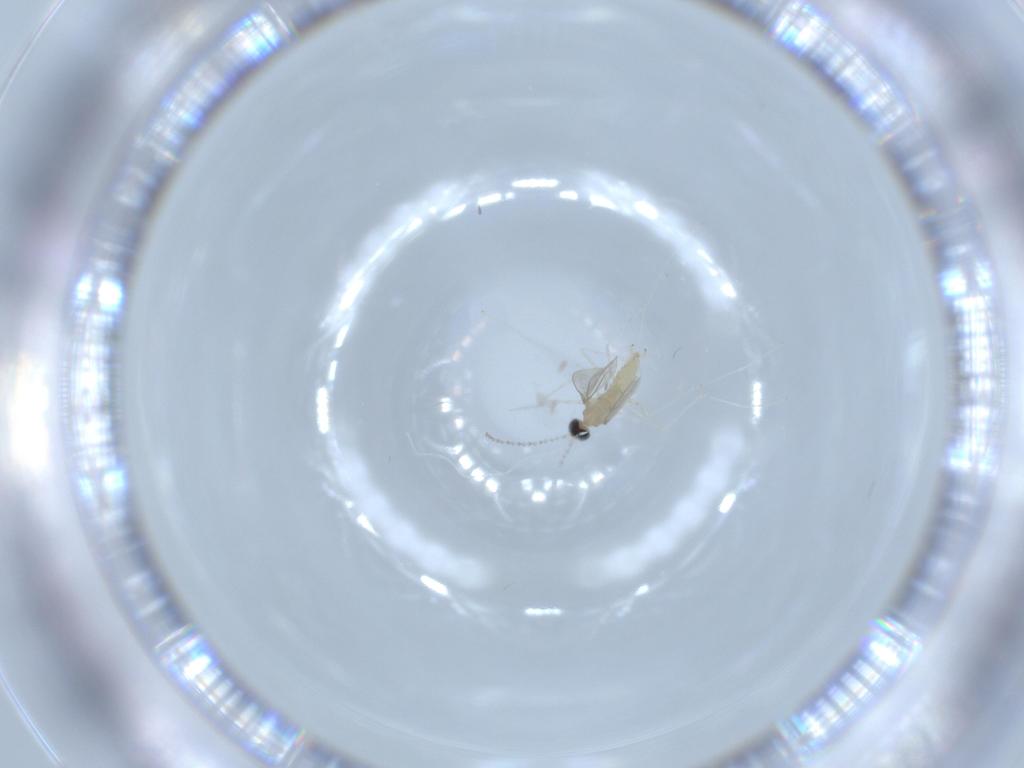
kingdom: Animalia
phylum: Arthropoda
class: Insecta
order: Diptera
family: Cecidomyiidae
